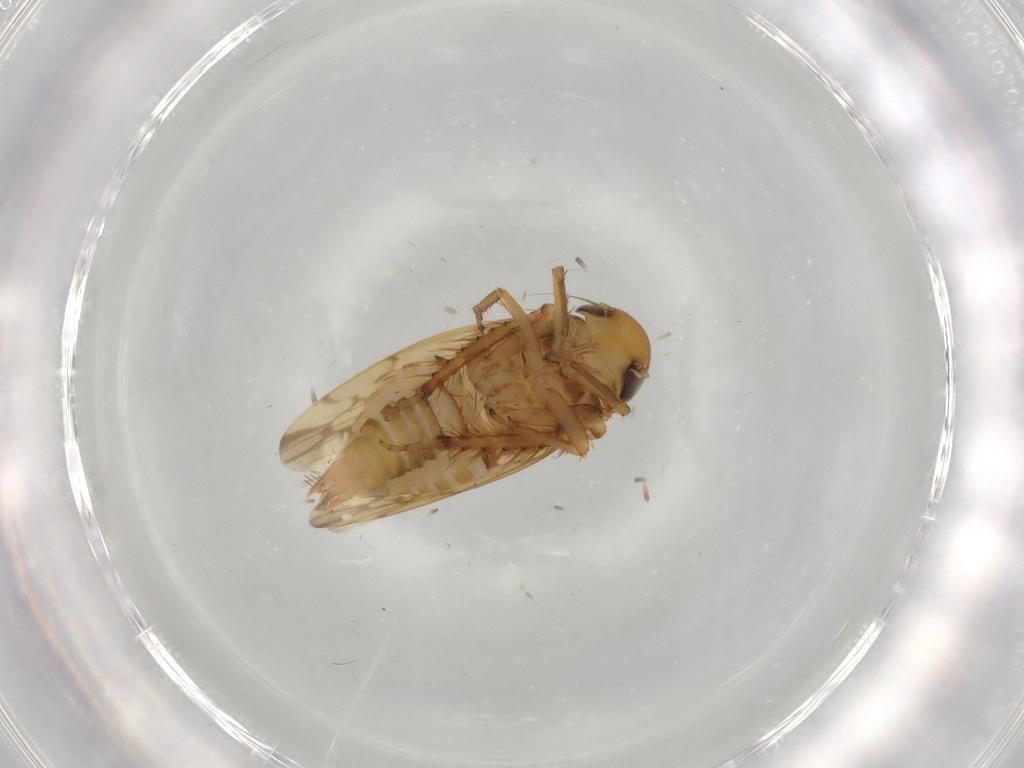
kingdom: Animalia
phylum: Arthropoda
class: Insecta
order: Hemiptera
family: Cicadellidae
